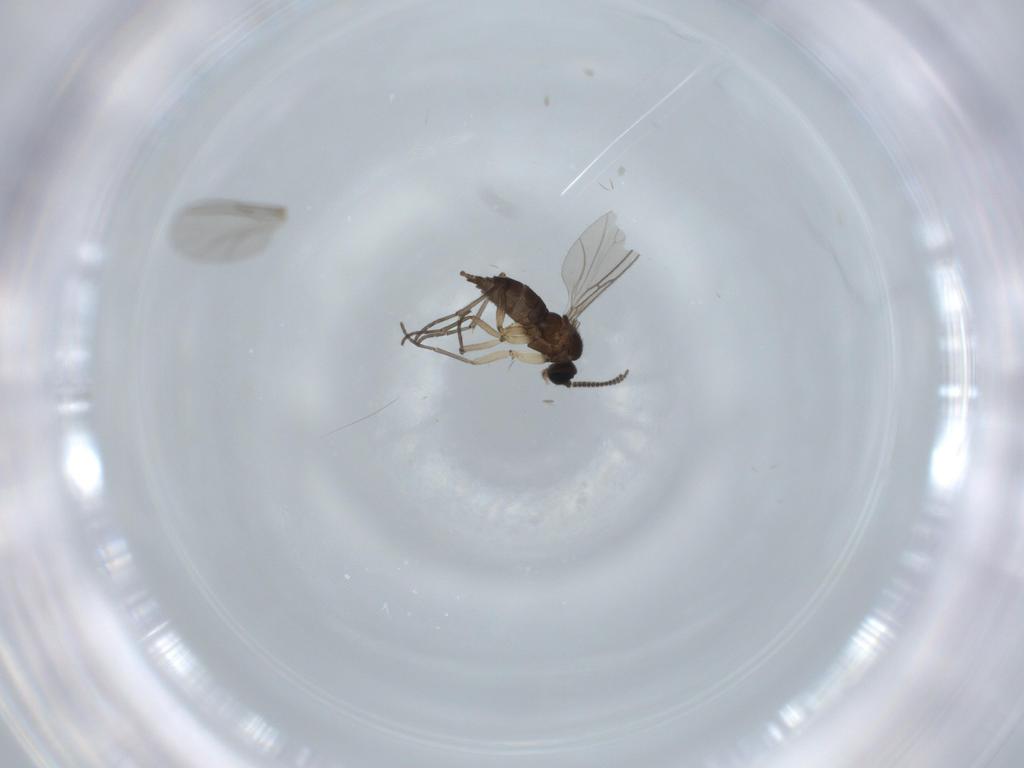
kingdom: Animalia
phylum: Arthropoda
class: Insecta
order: Diptera
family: Sciaridae
